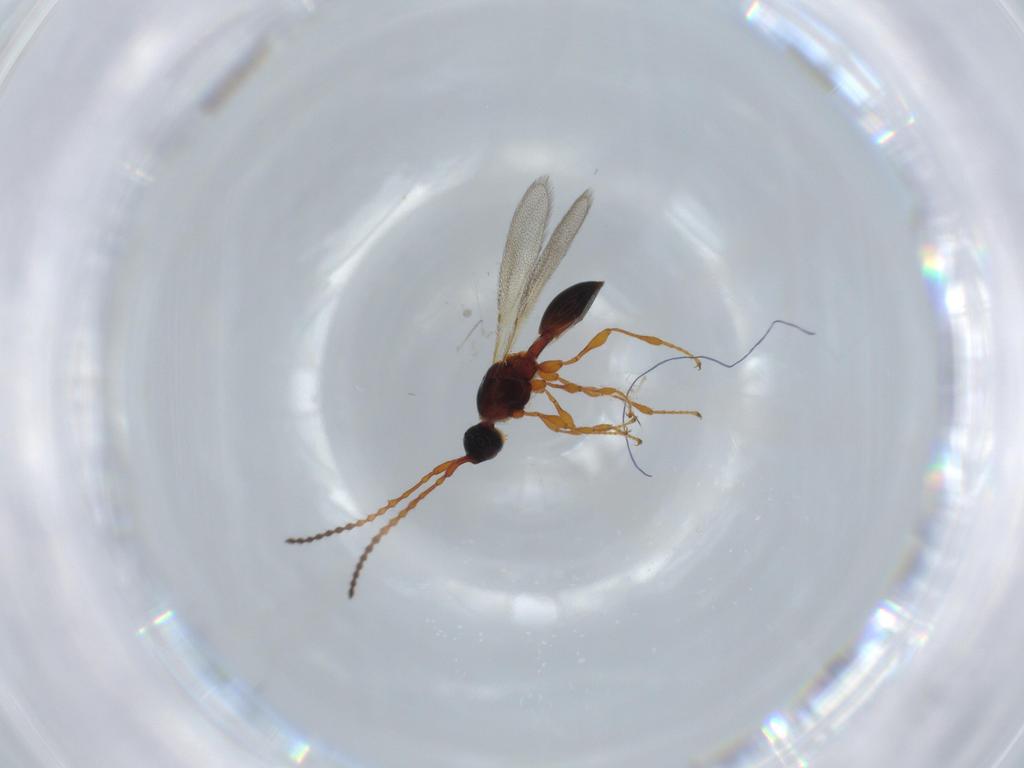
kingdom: Animalia
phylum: Arthropoda
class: Insecta
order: Hymenoptera
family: Diapriidae
